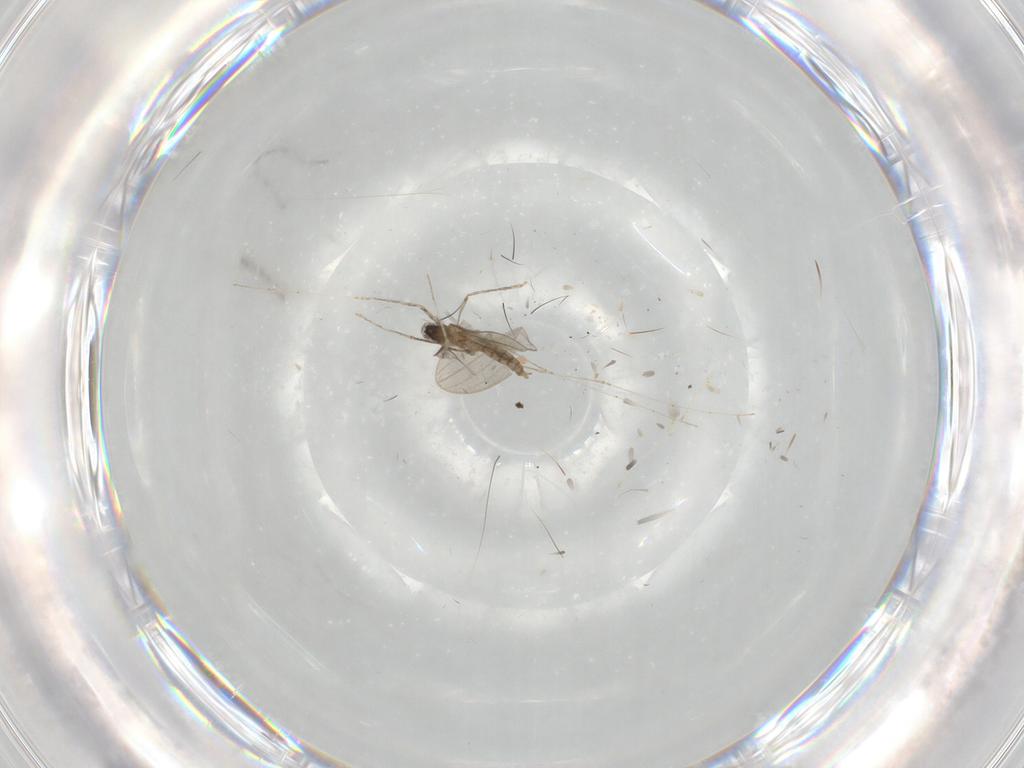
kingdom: Animalia
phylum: Arthropoda
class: Insecta
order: Diptera
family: Cecidomyiidae
